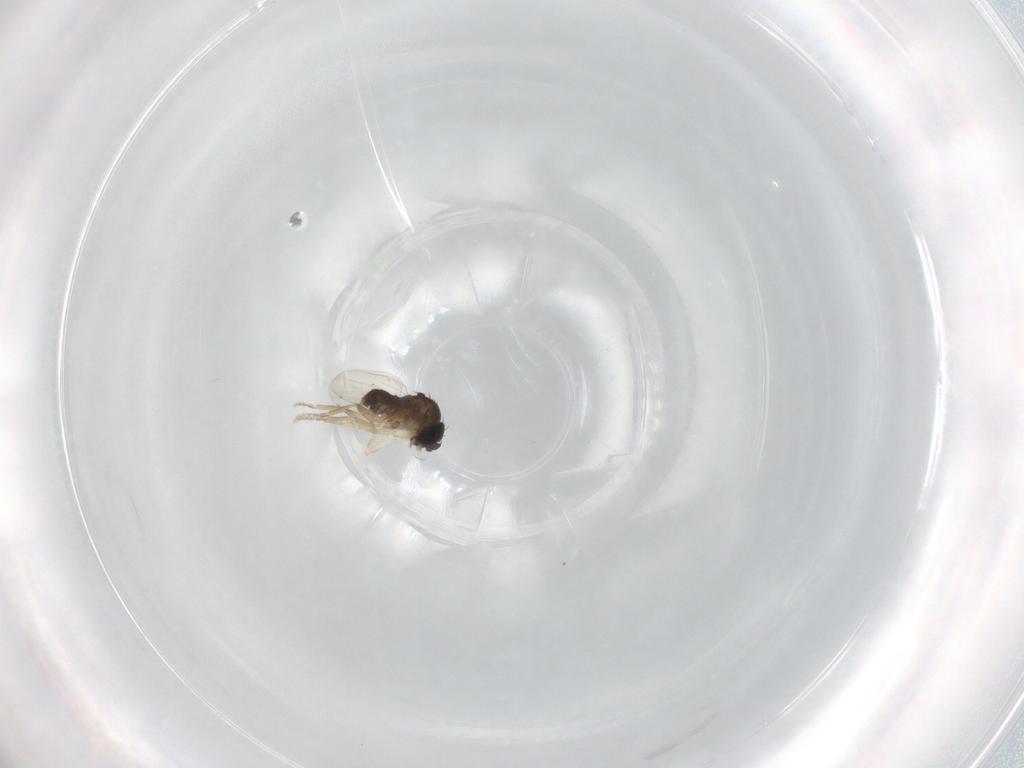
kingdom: Animalia
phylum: Arthropoda
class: Insecta
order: Diptera
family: Phoridae
